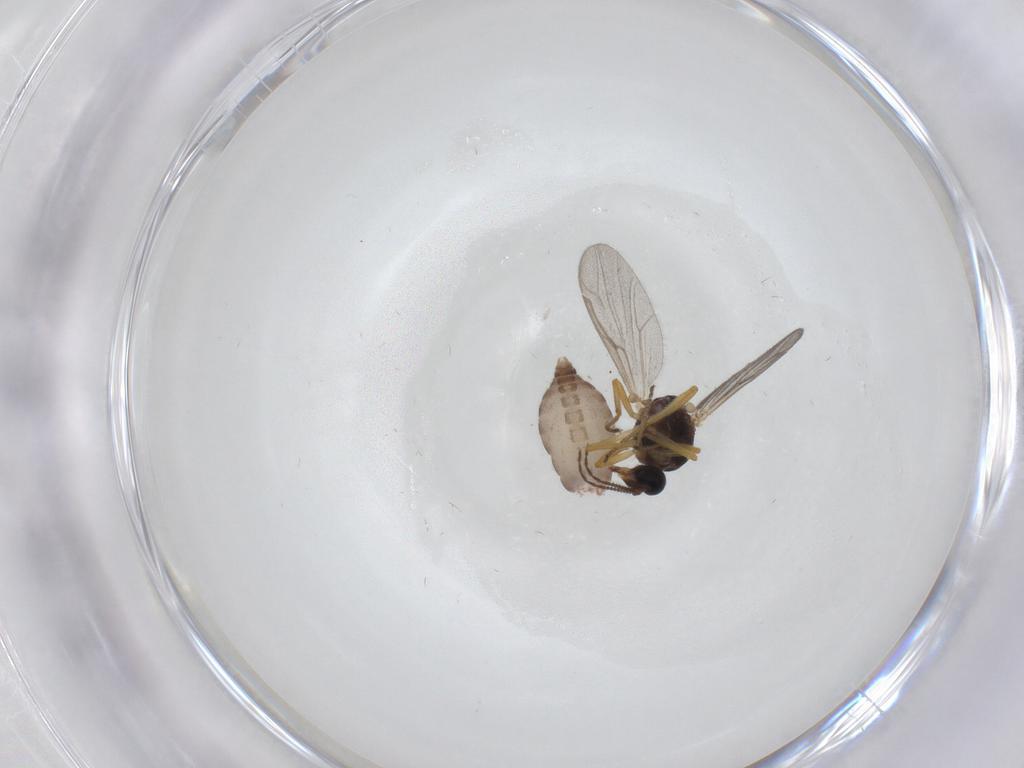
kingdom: Animalia
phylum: Arthropoda
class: Insecta
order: Diptera
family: Ceratopogonidae
